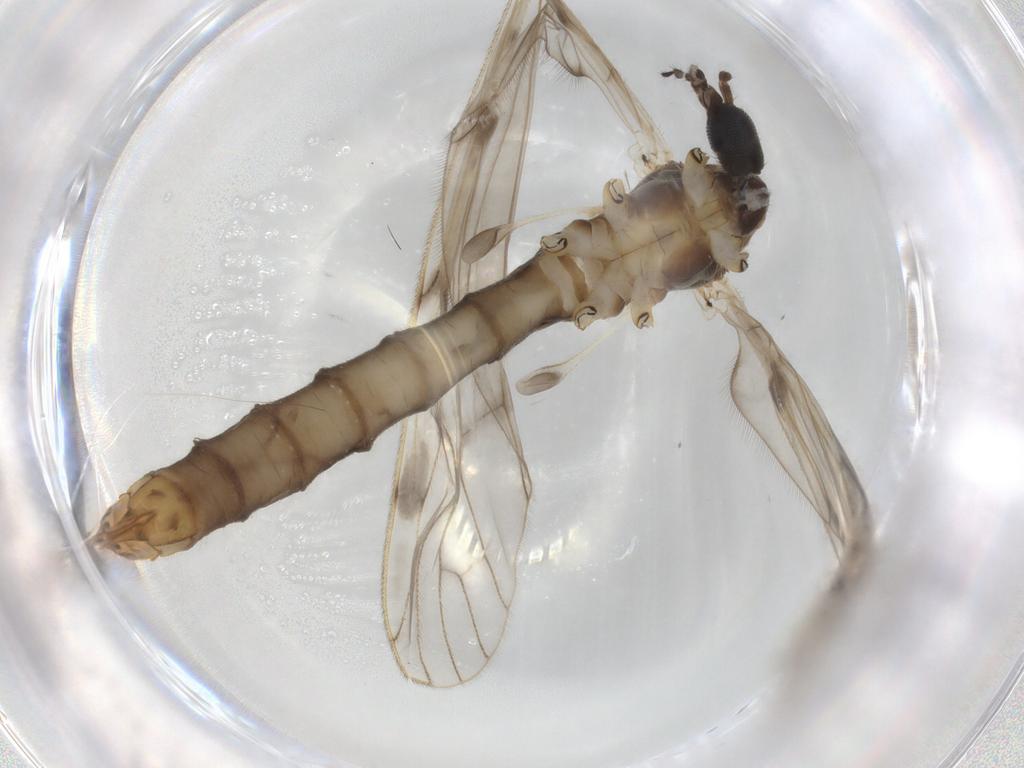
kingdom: Animalia
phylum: Arthropoda
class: Insecta
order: Diptera
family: Limoniidae
